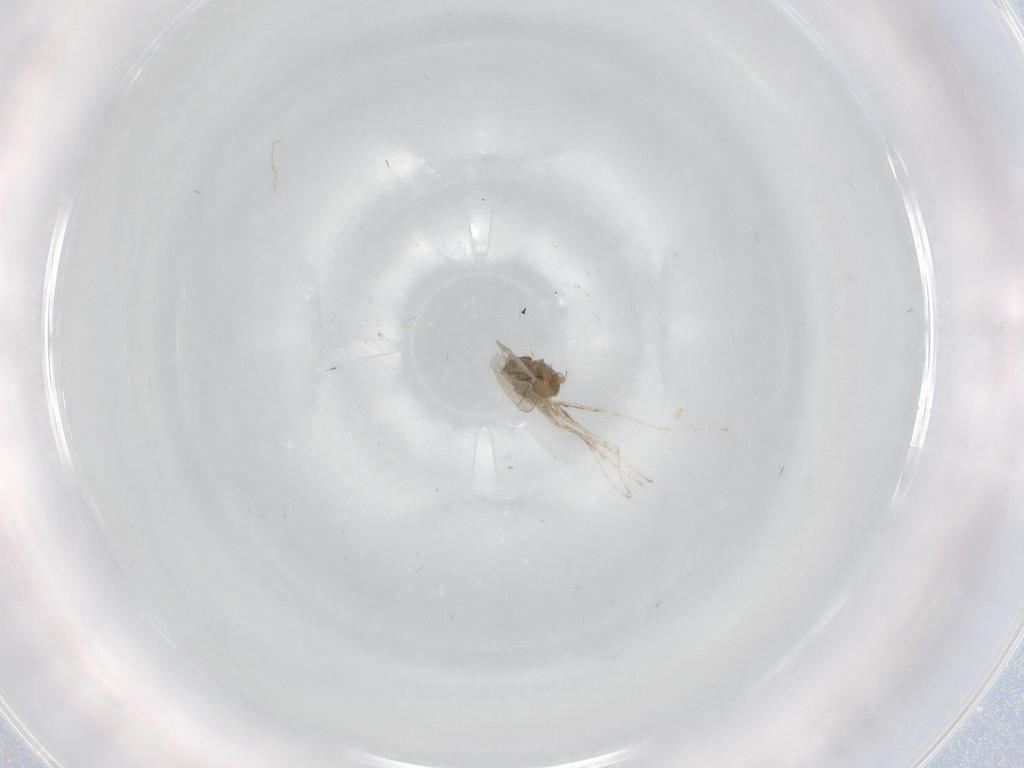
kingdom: Animalia
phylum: Arthropoda
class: Insecta
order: Diptera
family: Cecidomyiidae
